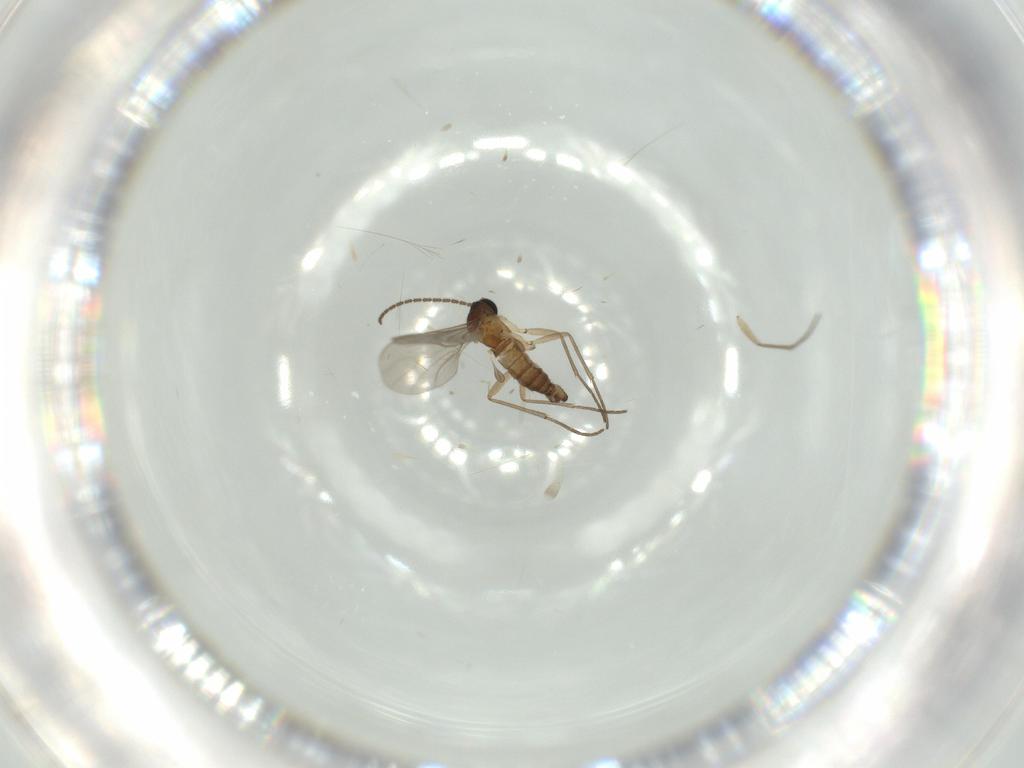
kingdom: Animalia
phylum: Arthropoda
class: Insecta
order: Diptera
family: Sciaridae
